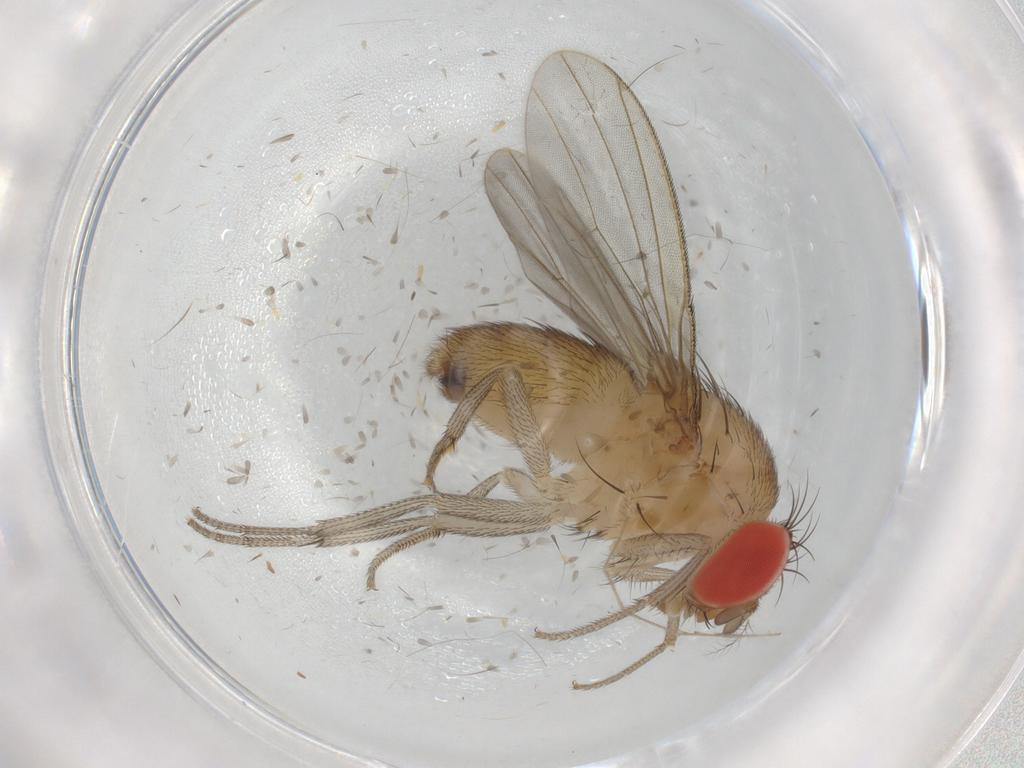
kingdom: Animalia
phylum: Arthropoda
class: Insecta
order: Diptera
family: Drosophilidae
